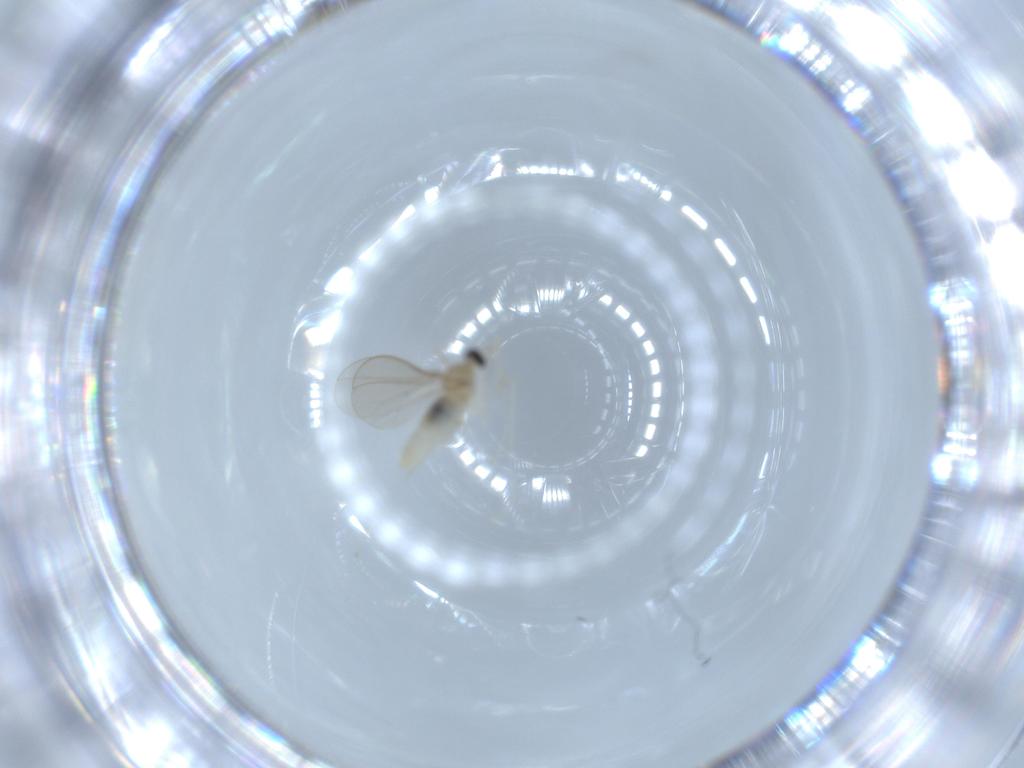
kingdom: Animalia
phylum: Arthropoda
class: Insecta
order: Diptera
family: Cecidomyiidae
